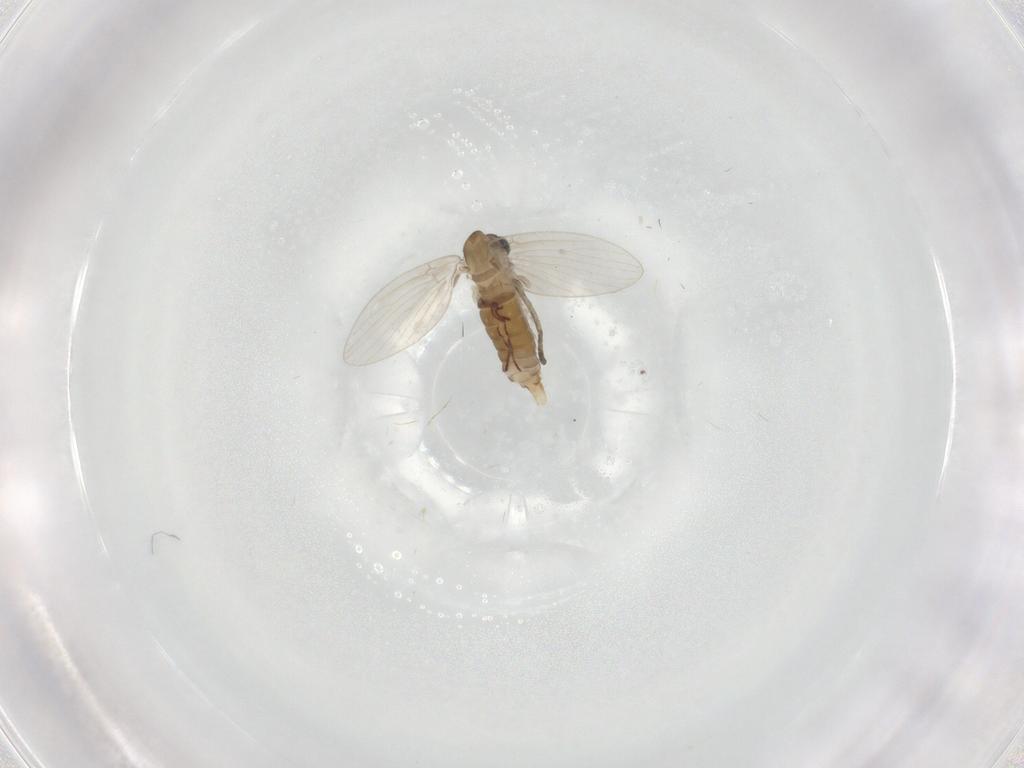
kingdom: Animalia
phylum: Arthropoda
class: Insecta
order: Diptera
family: Psychodidae
